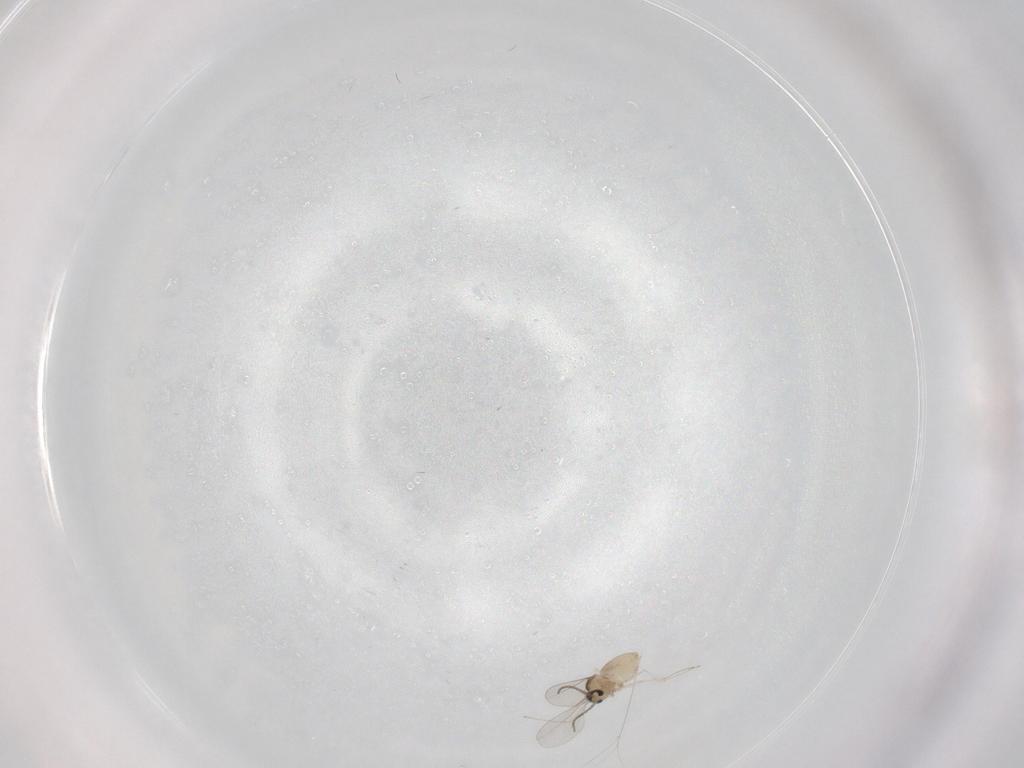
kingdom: Animalia
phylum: Arthropoda
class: Insecta
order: Diptera
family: Cecidomyiidae
